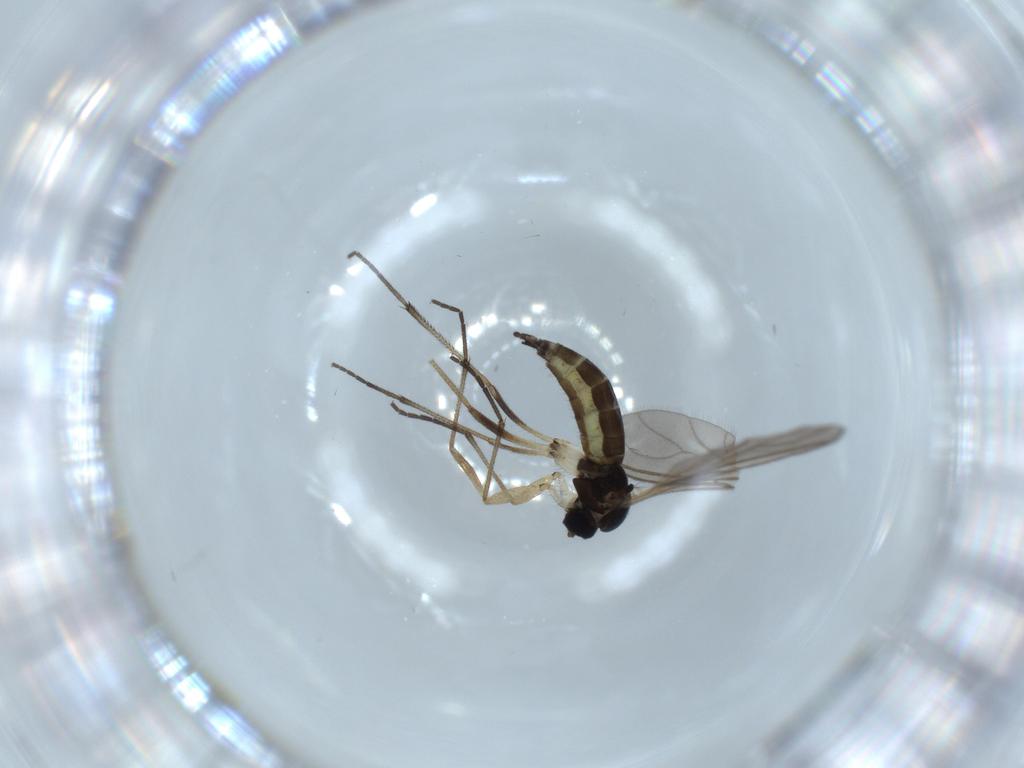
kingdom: Animalia
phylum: Arthropoda
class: Insecta
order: Diptera
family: Sciaridae
